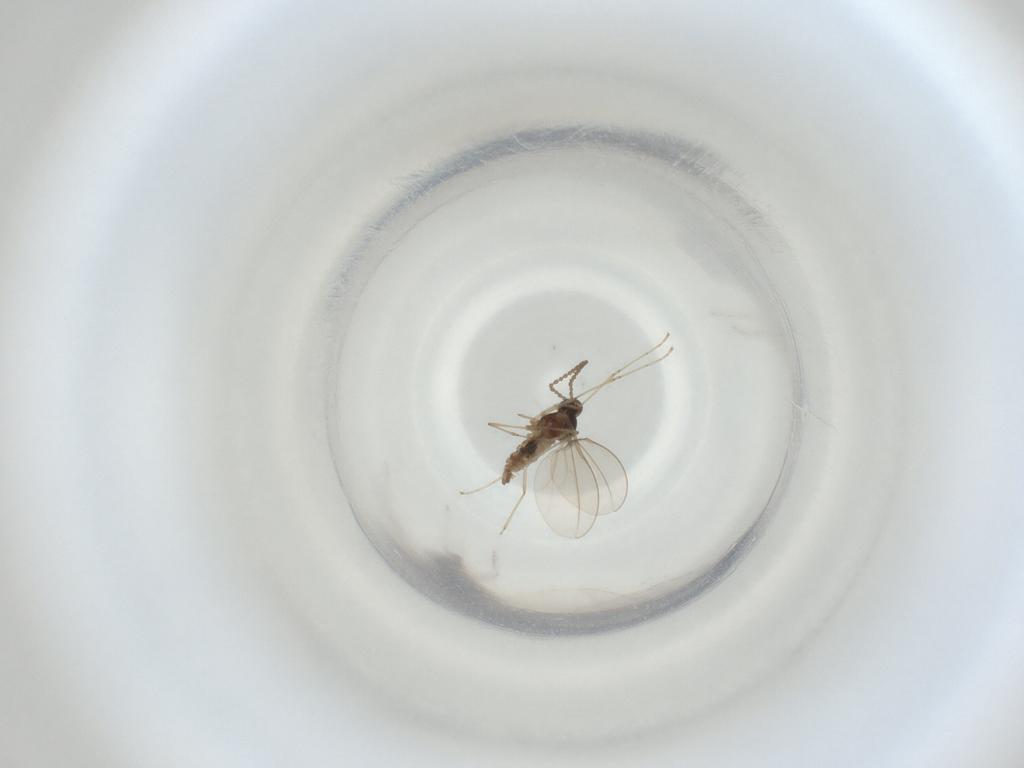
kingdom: Animalia
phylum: Arthropoda
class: Insecta
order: Diptera
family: Cecidomyiidae
